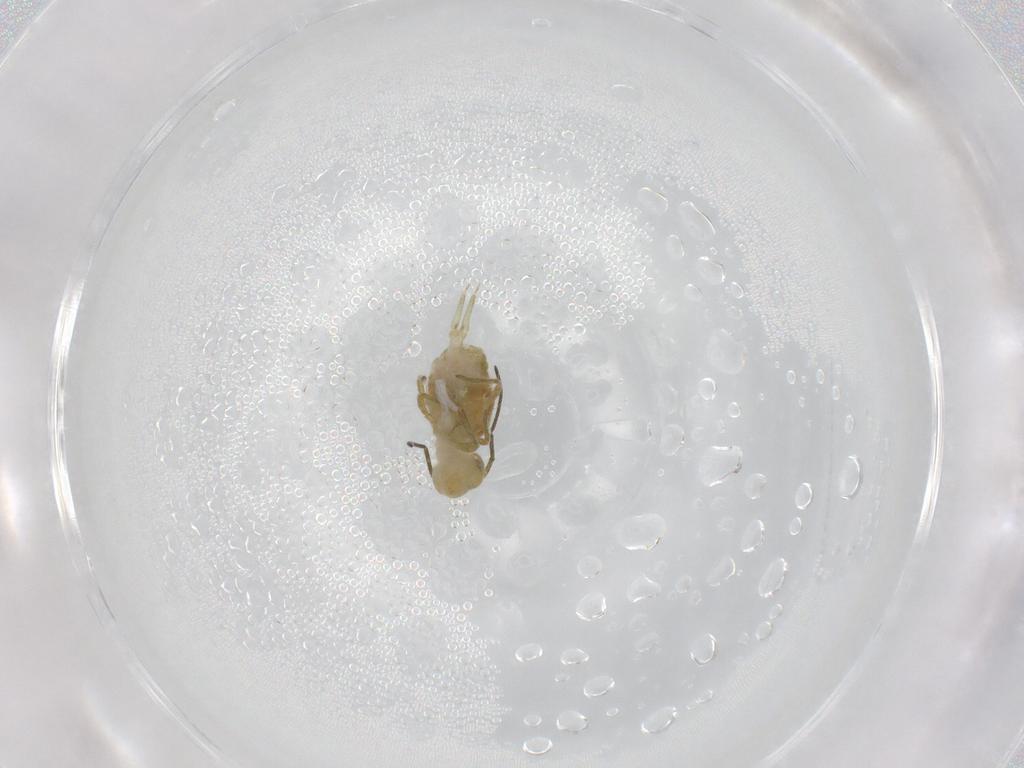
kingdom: Animalia
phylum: Arthropoda
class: Collembola
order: Symphypleona
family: Sminthuridae
